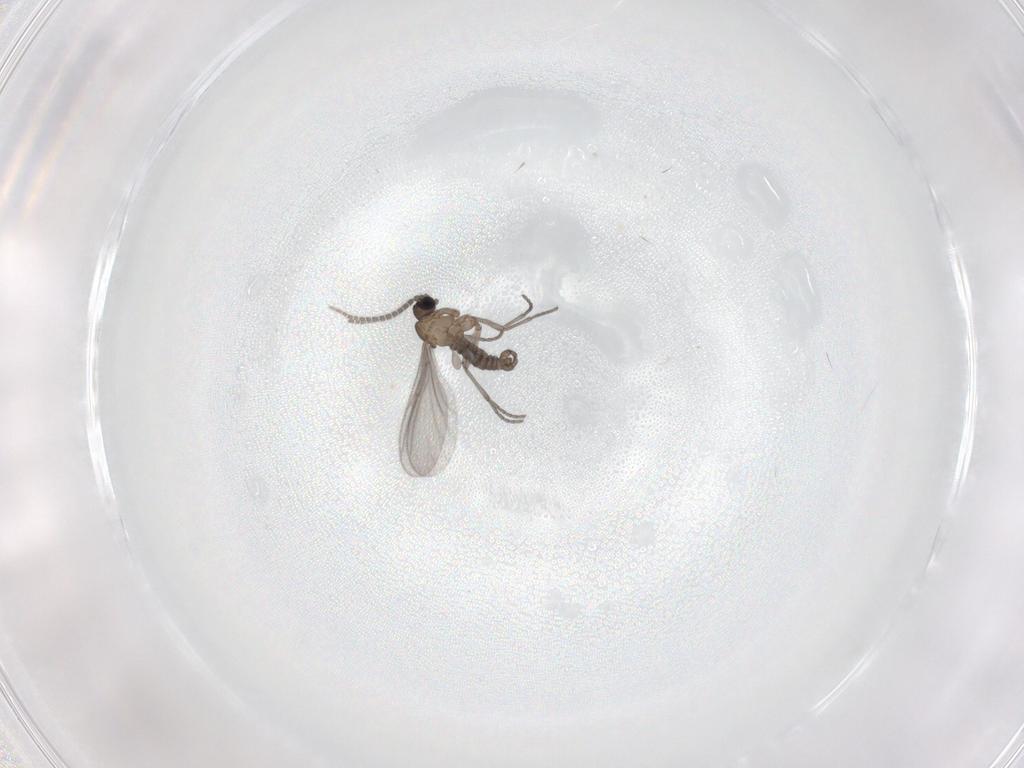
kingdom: Animalia
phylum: Arthropoda
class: Insecta
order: Diptera
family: Sciaridae
